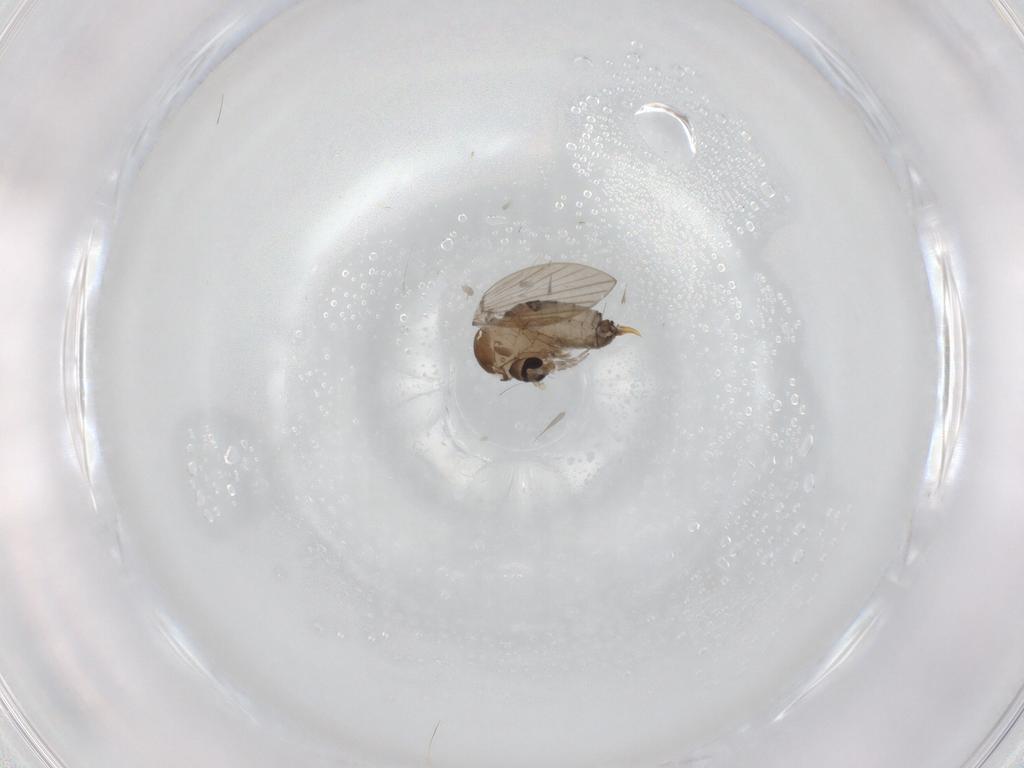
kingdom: Animalia
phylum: Arthropoda
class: Insecta
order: Diptera
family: Psychodidae
